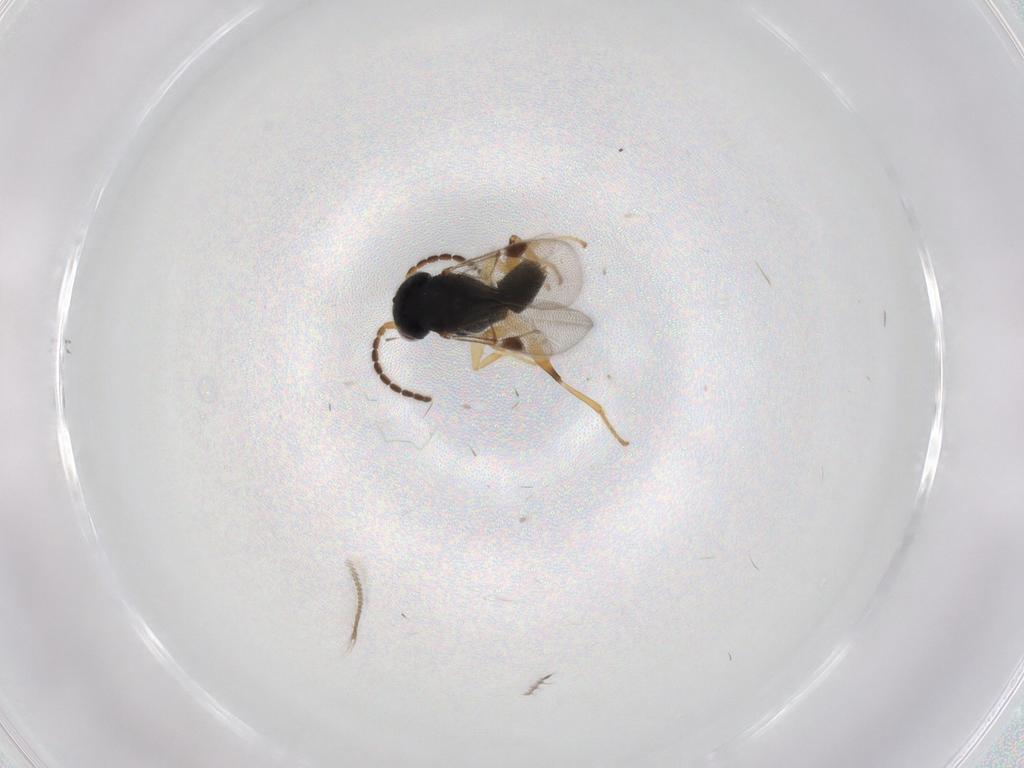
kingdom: Animalia
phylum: Arthropoda
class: Insecta
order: Hymenoptera
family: Dryinidae
